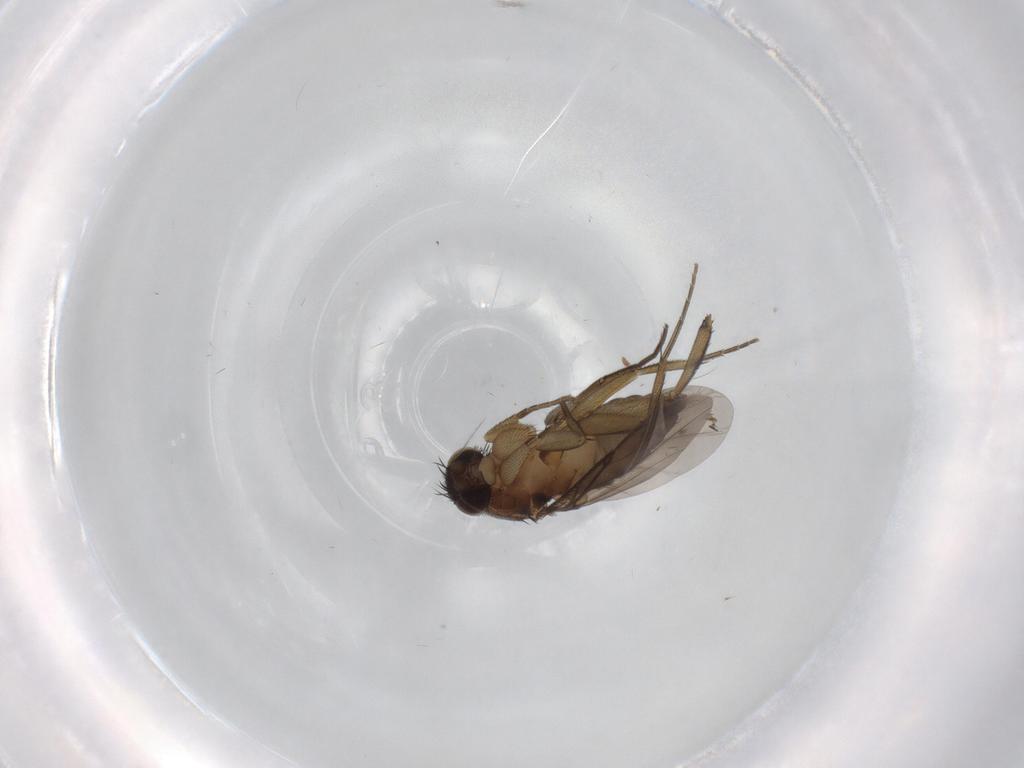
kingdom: Animalia
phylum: Arthropoda
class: Insecta
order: Diptera
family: Phoridae
